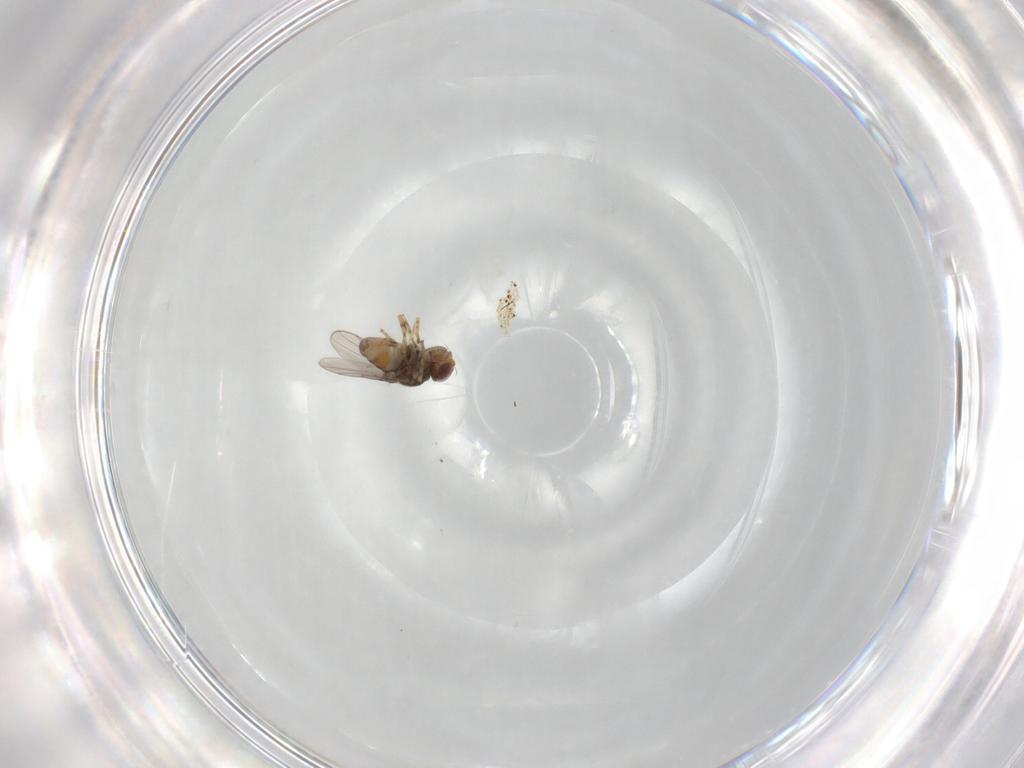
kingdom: Animalia
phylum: Arthropoda
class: Insecta
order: Diptera
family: Chloropidae
